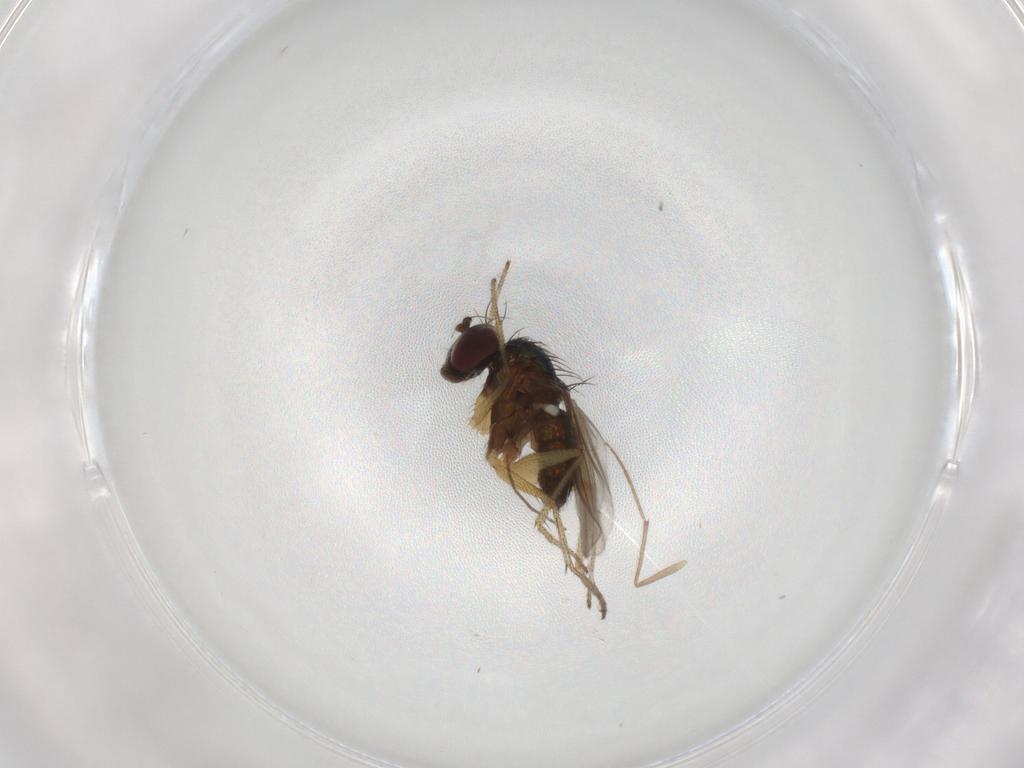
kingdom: Animalia
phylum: Arthropoda
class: Insecta
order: Diptera
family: Dolichopodidae
